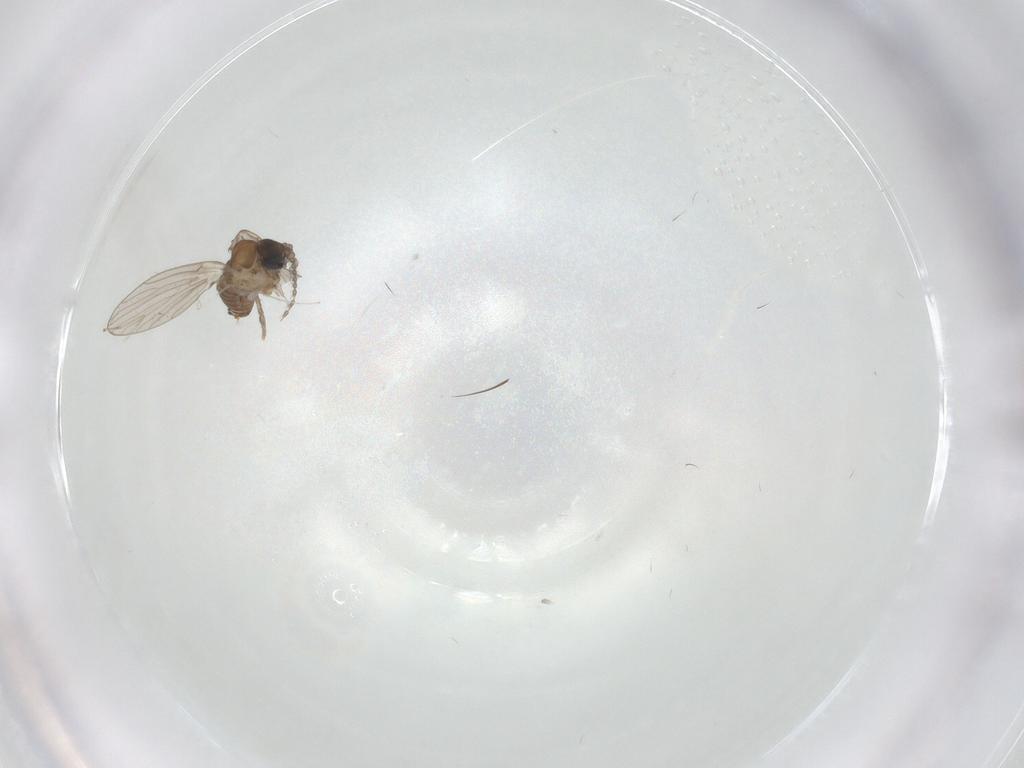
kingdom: Animalia
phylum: Arthropoda
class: Insecta
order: Diptera
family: Psychodidae
